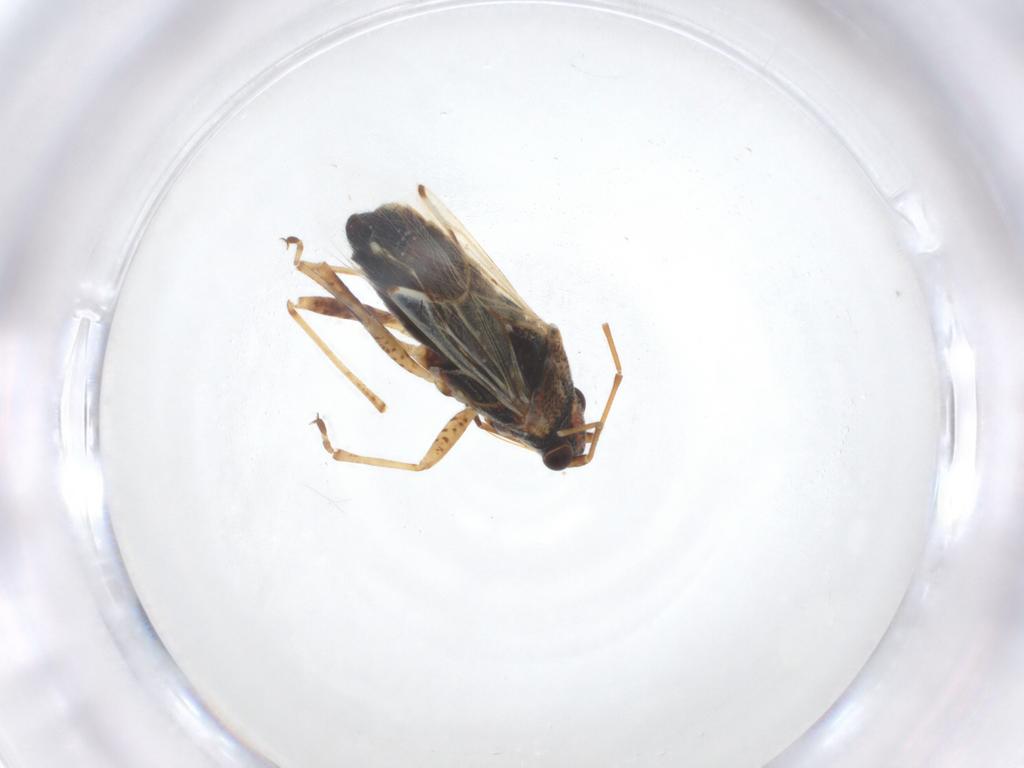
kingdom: Animalia
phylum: Arthropoda
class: Insecta
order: Hemiptera
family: Lygaeidae
